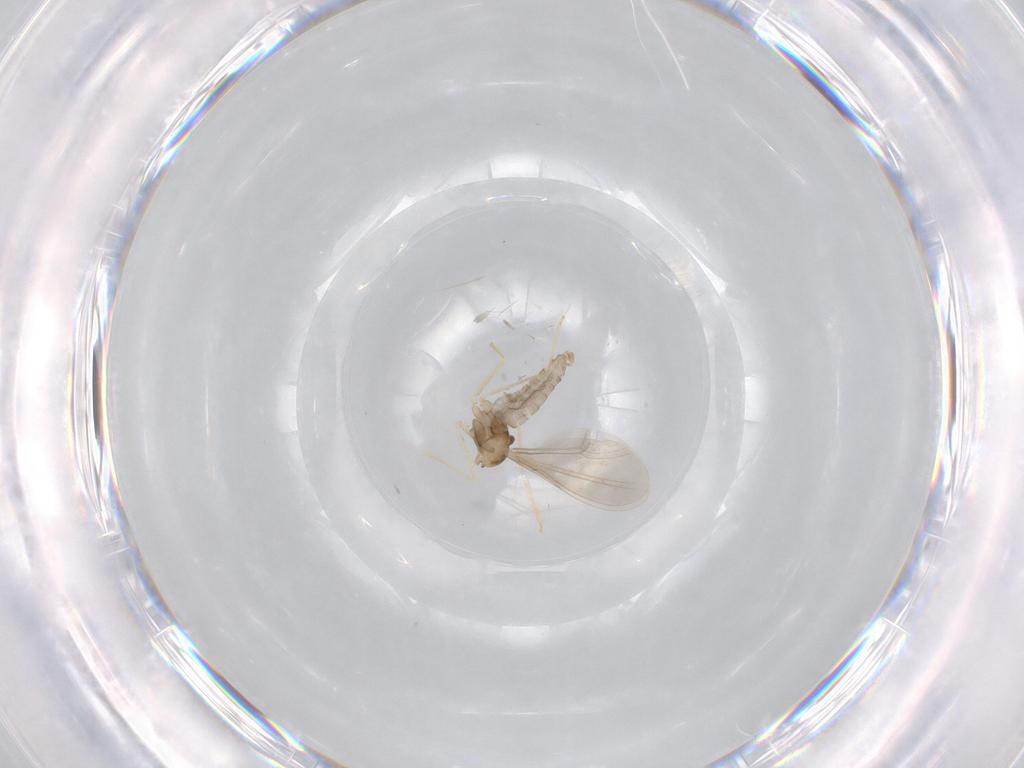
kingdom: Animalia
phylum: Arthropoda
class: Insecta
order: Diptera
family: Cecidomyiidae
